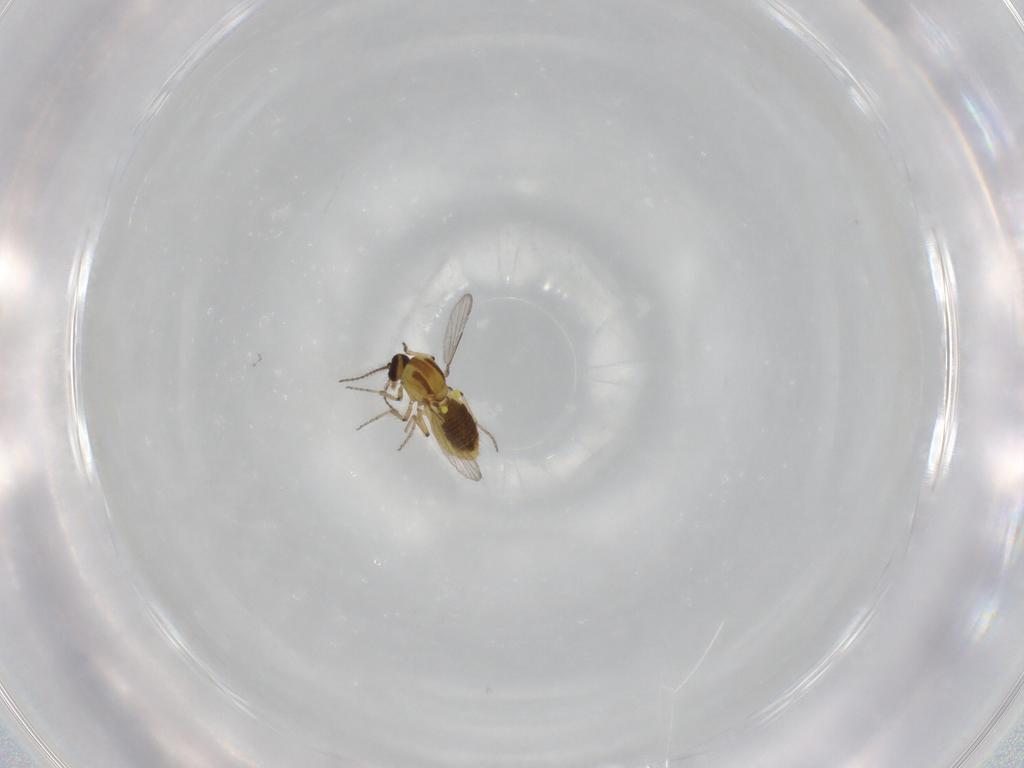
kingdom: Animalia
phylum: Arthropoda
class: Insecta
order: Diptera
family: Ceratopogonidae
